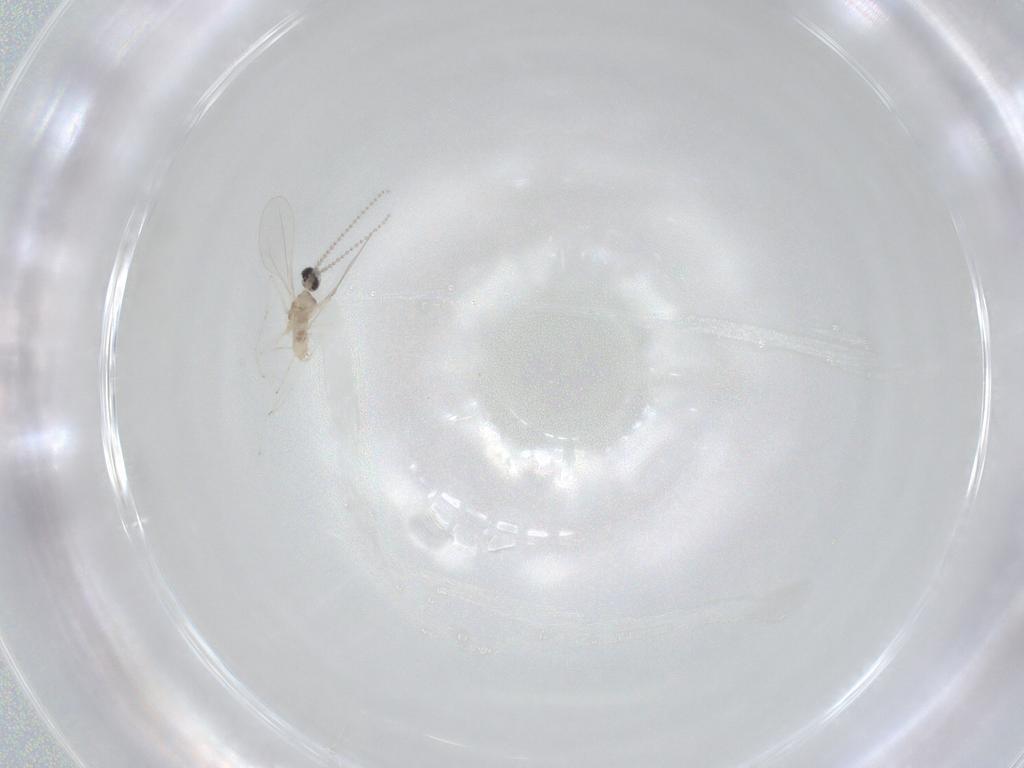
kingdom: Animalia
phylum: Arthropoda
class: Insecta
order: Diptera
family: Cecidomyiidae
